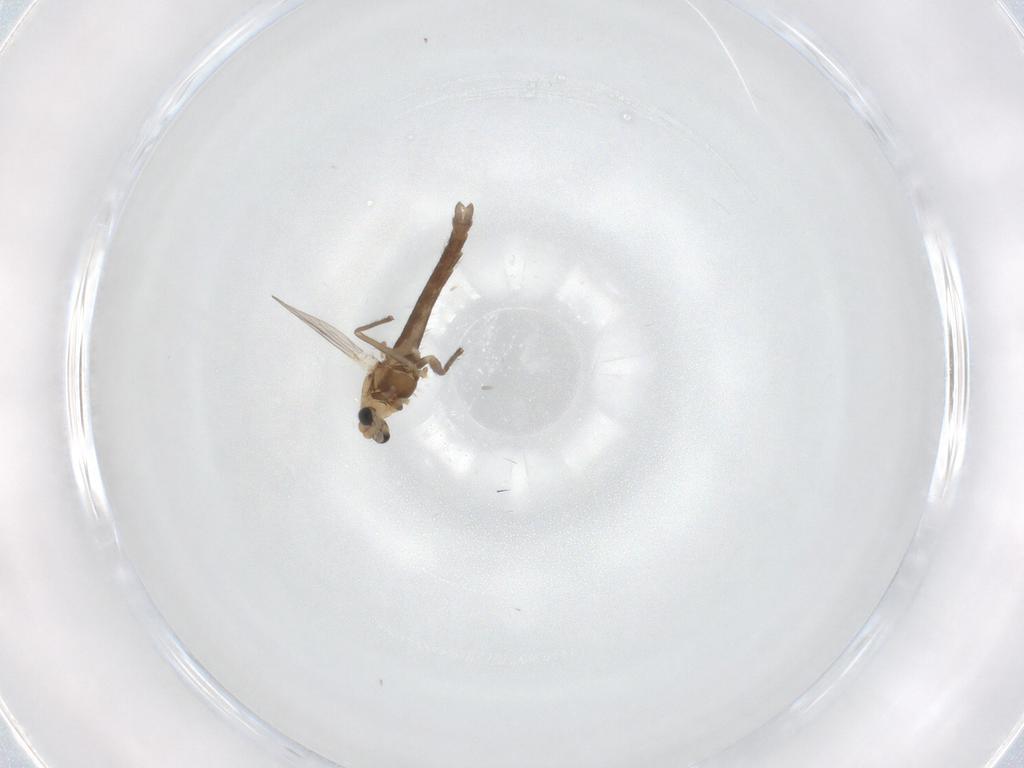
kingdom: Animalia
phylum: Arthropoda
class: Insecta
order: Diptera
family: Chironomidae
